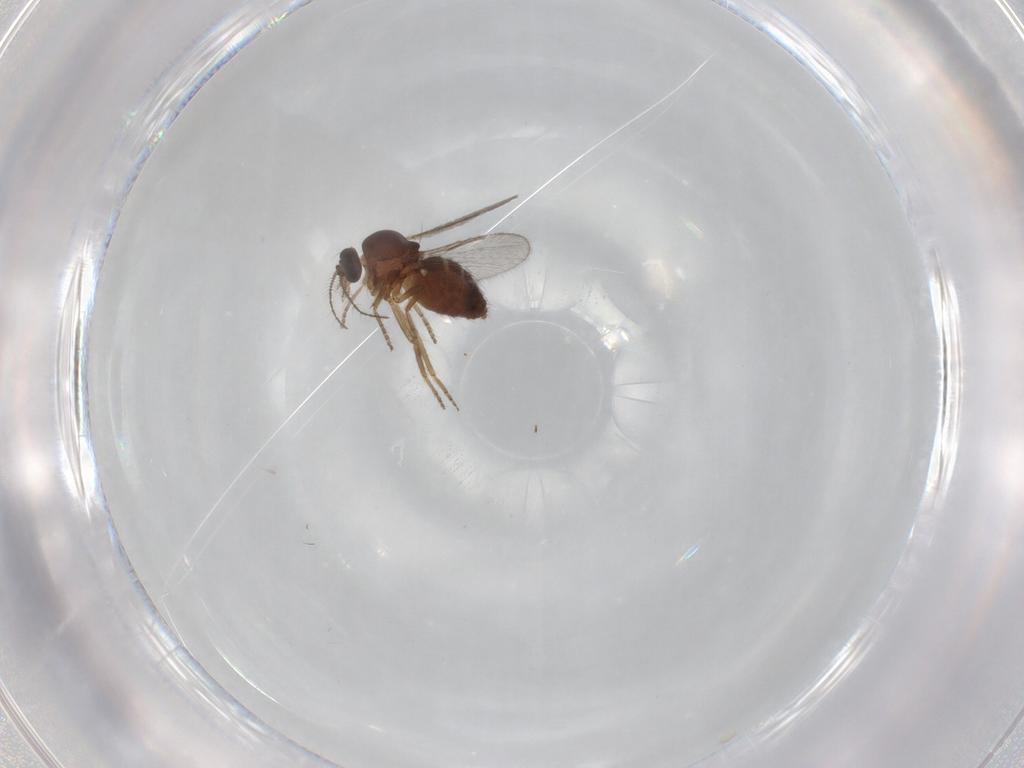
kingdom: Animalia
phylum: Arthropoda
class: Insecta
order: Diptera
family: Ceratopogonidae
